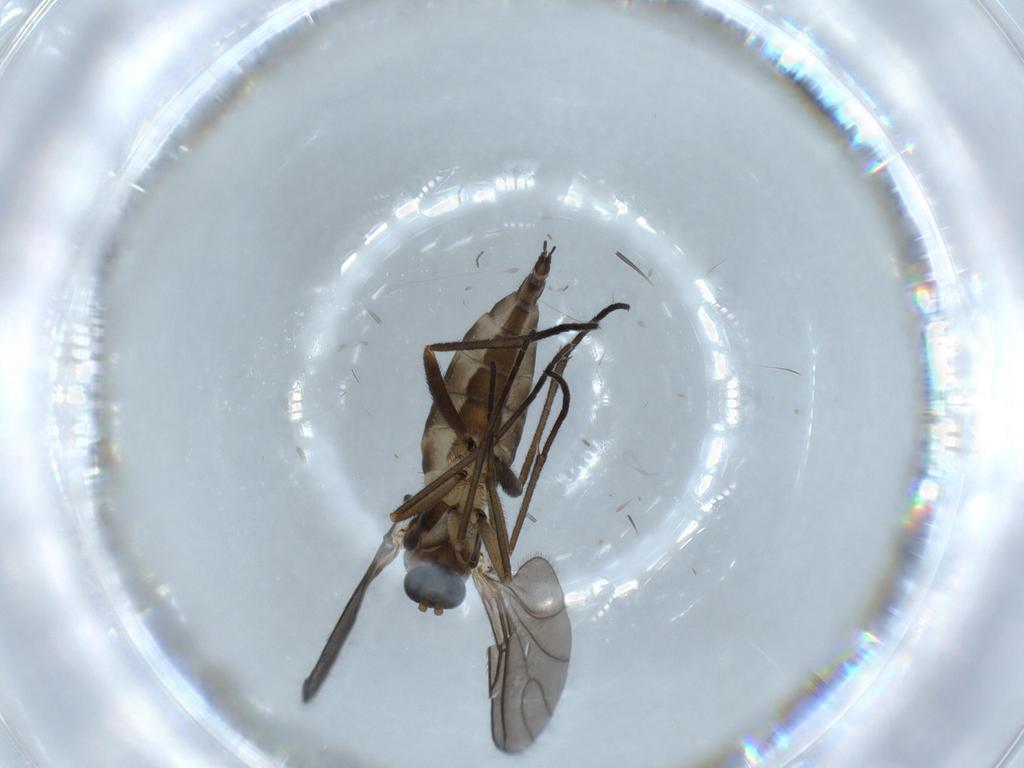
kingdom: Animalia
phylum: Arthropoda
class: Insecta
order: Diptera
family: Sciaridae
